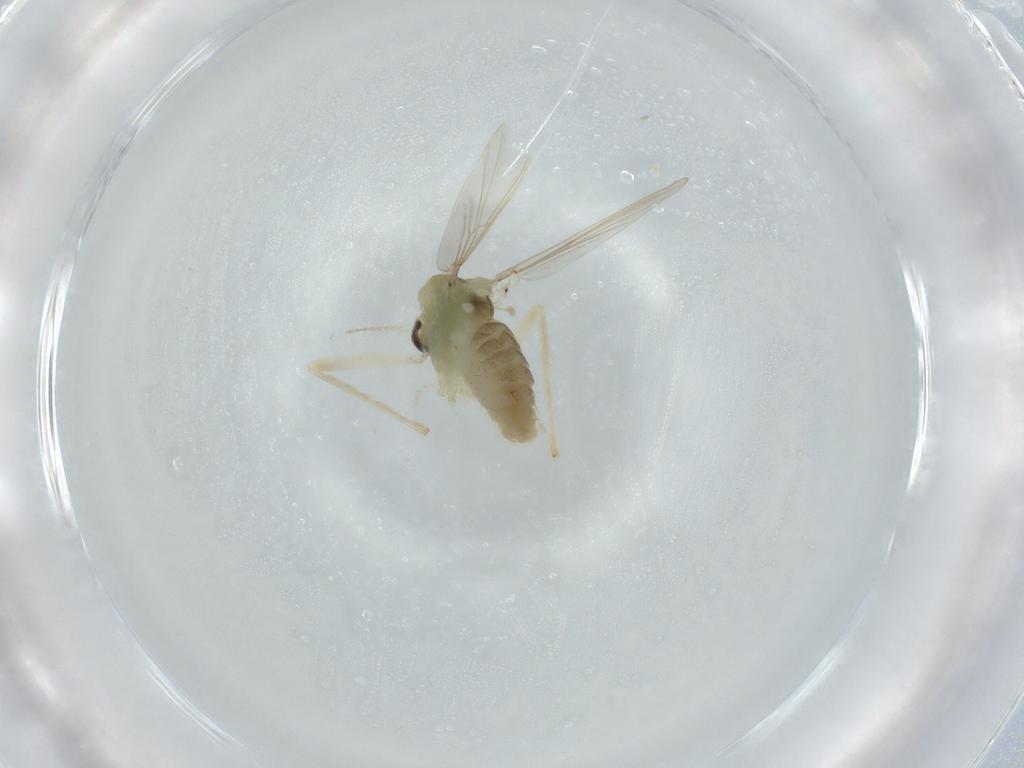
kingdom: Animalia
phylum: Arthropoda
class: Insecta
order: Diptera
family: Chironomidae
